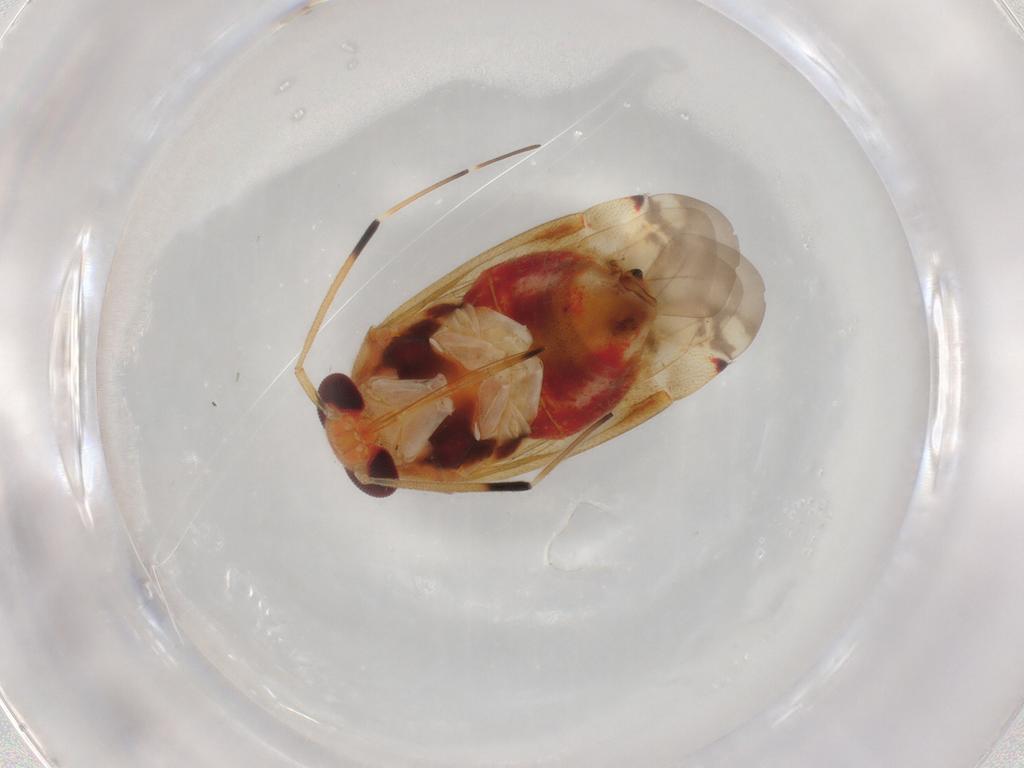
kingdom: Animalia
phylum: Arthropoda
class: Insecta
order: Hemiptera
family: Miridae
